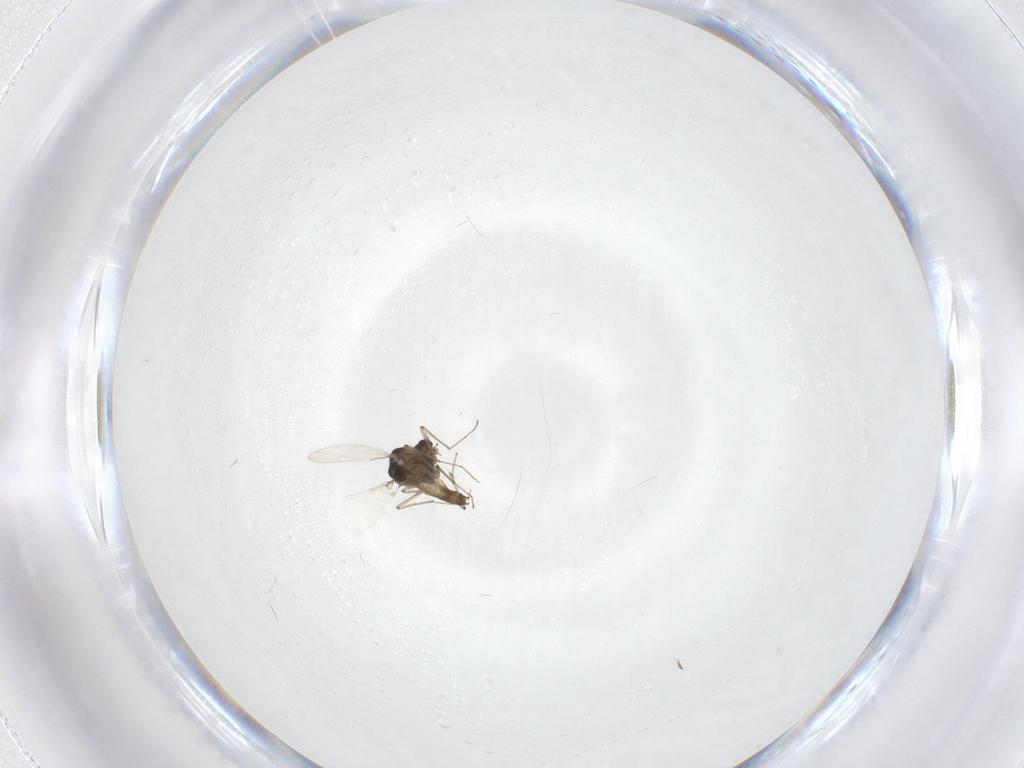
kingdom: Animalia
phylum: Arthropoda
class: Insecta
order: Diptera
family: Chironomidae
